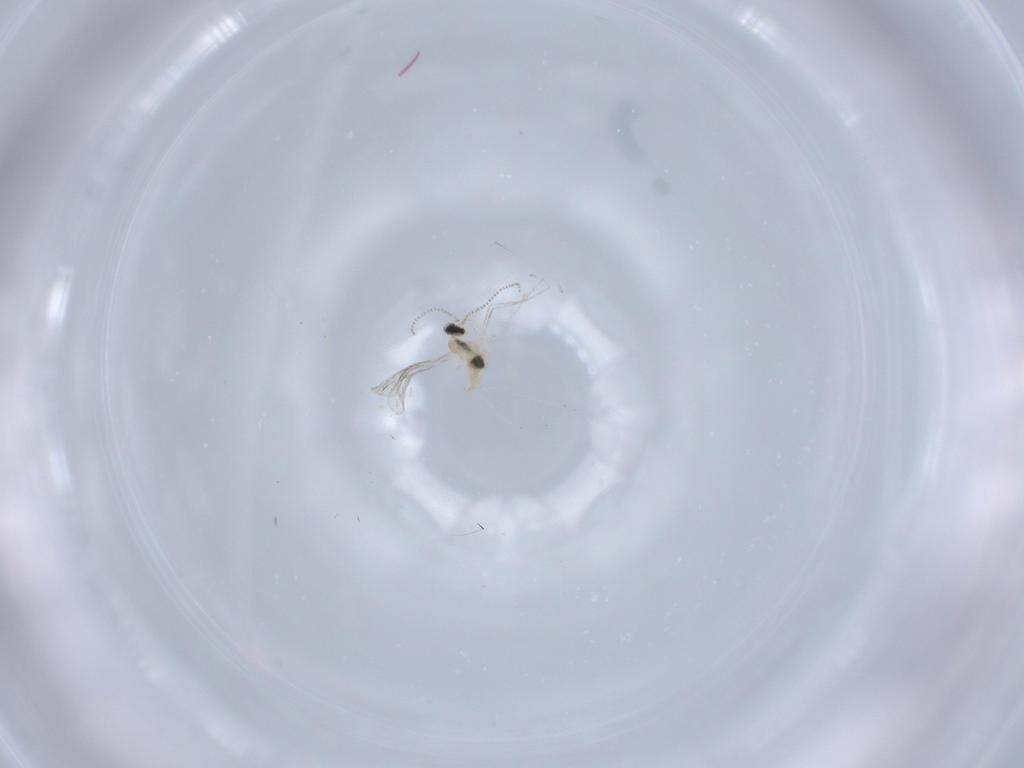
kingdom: Animalia
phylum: Arthropoda
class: Insecta
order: Diptera
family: Cecidomyiidae
